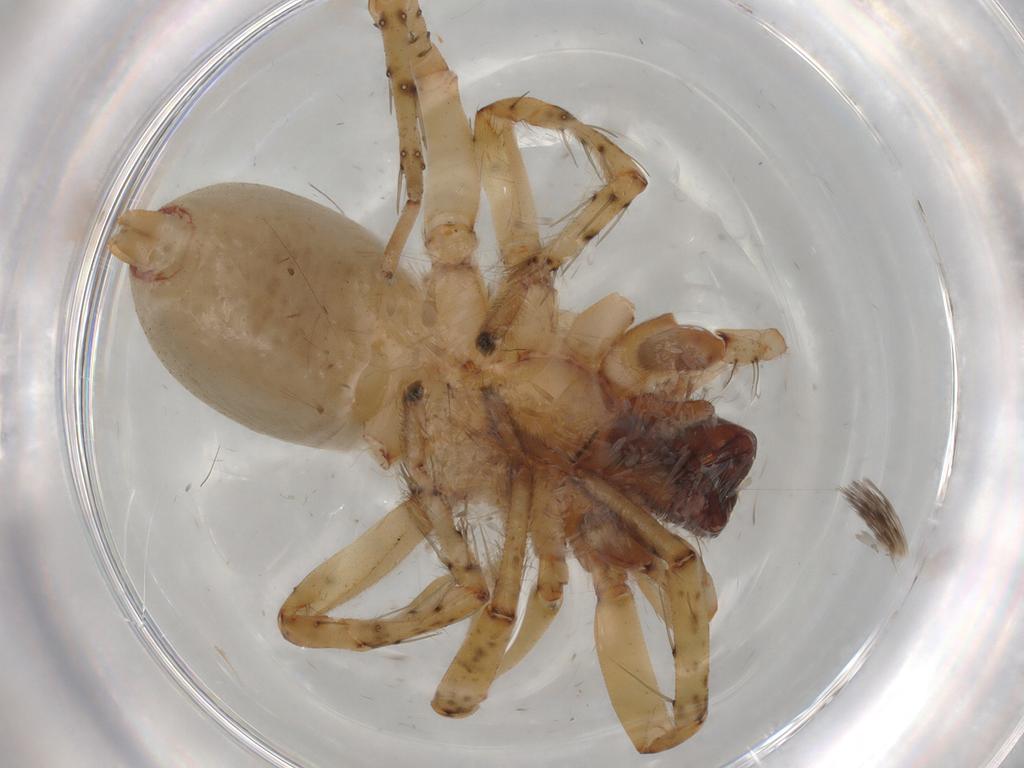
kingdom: Animalia
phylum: Arthropoda
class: Arachnida
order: Araneae
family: Clubionidae
